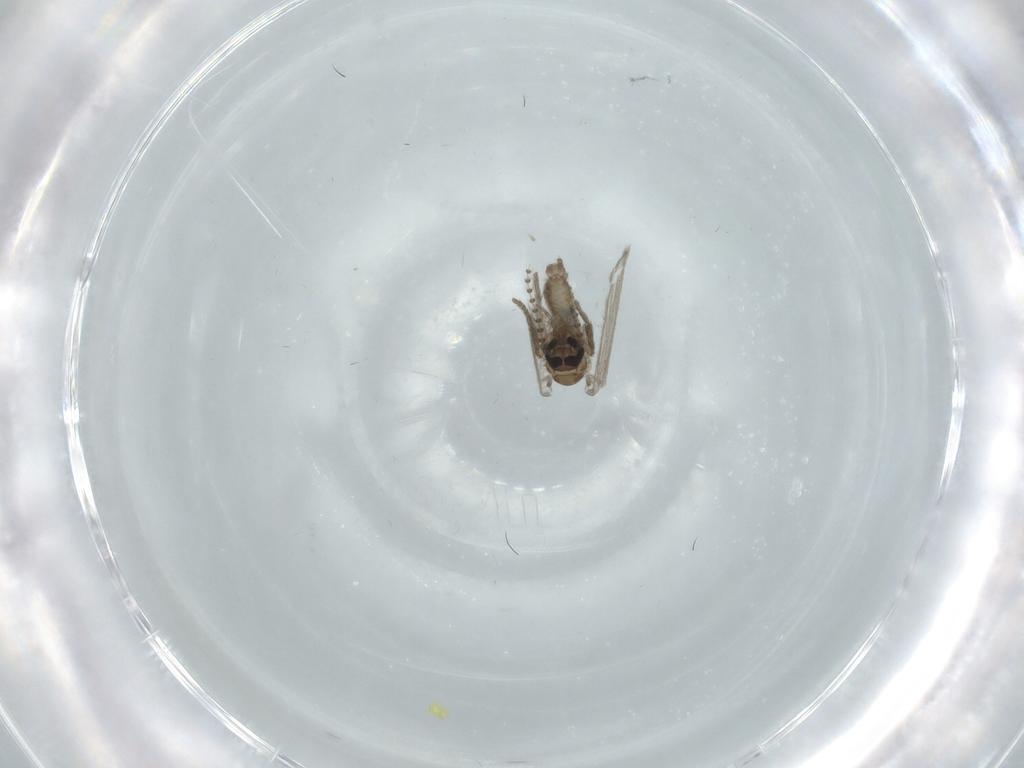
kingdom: Animalia
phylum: Arthropoda
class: Insecta
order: Diptera
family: Psychodidae
